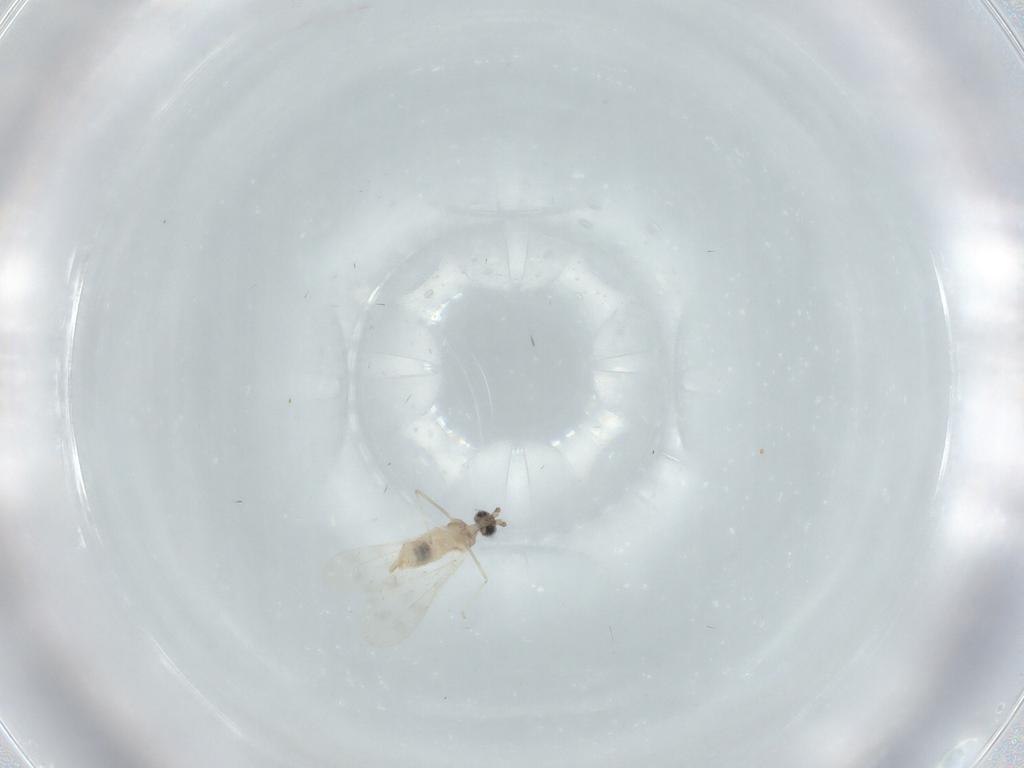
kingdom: Animalia
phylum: Arthropoda
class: Insecta
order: Diptera
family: Cecidomyiidae
